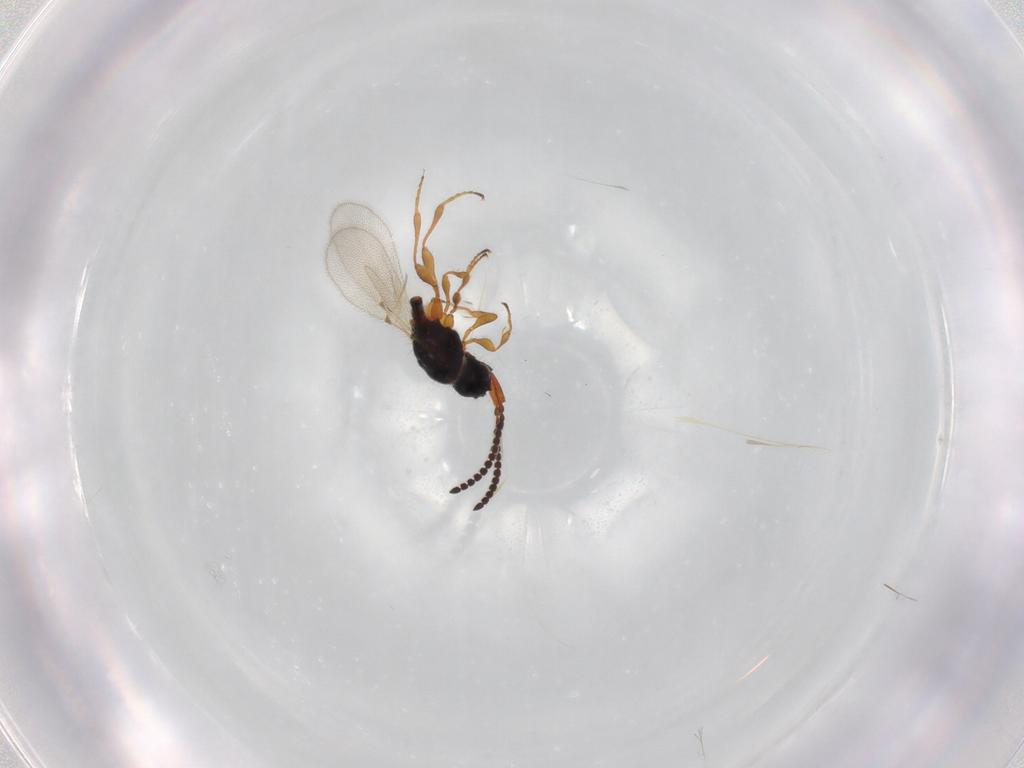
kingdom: Animalia
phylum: Arthropoda
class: Insecta
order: Hymenoptera
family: Diapriidae
